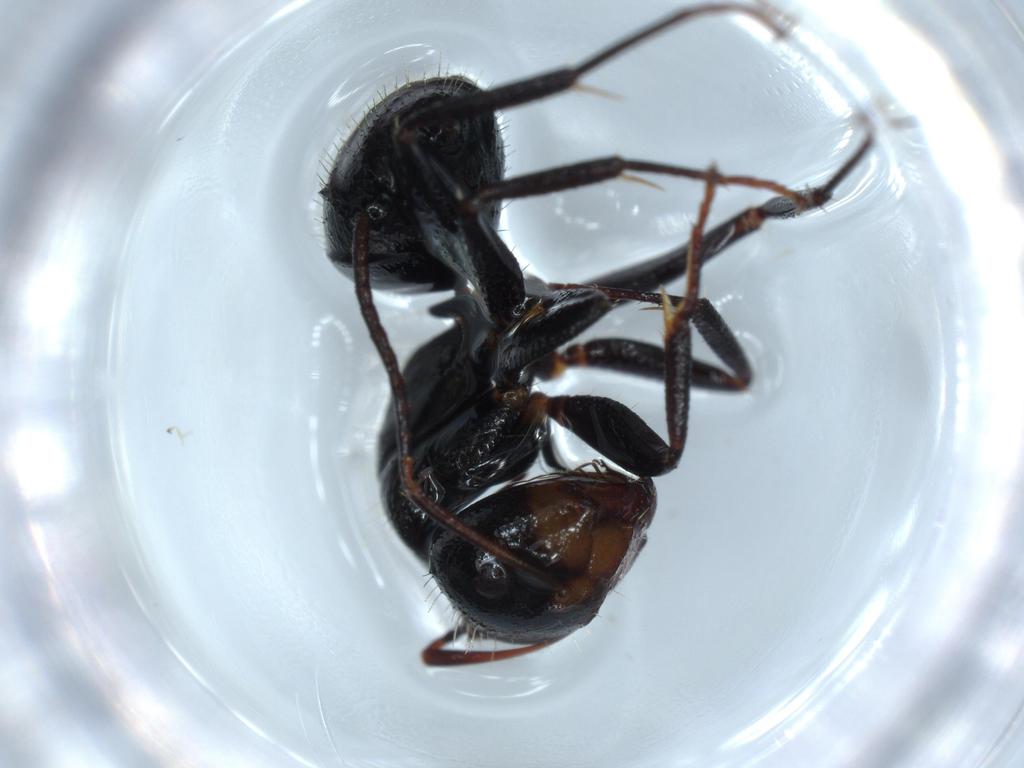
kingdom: Animalia
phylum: Arthropoda
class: Insecta
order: Hymenoptera
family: Formicidae
